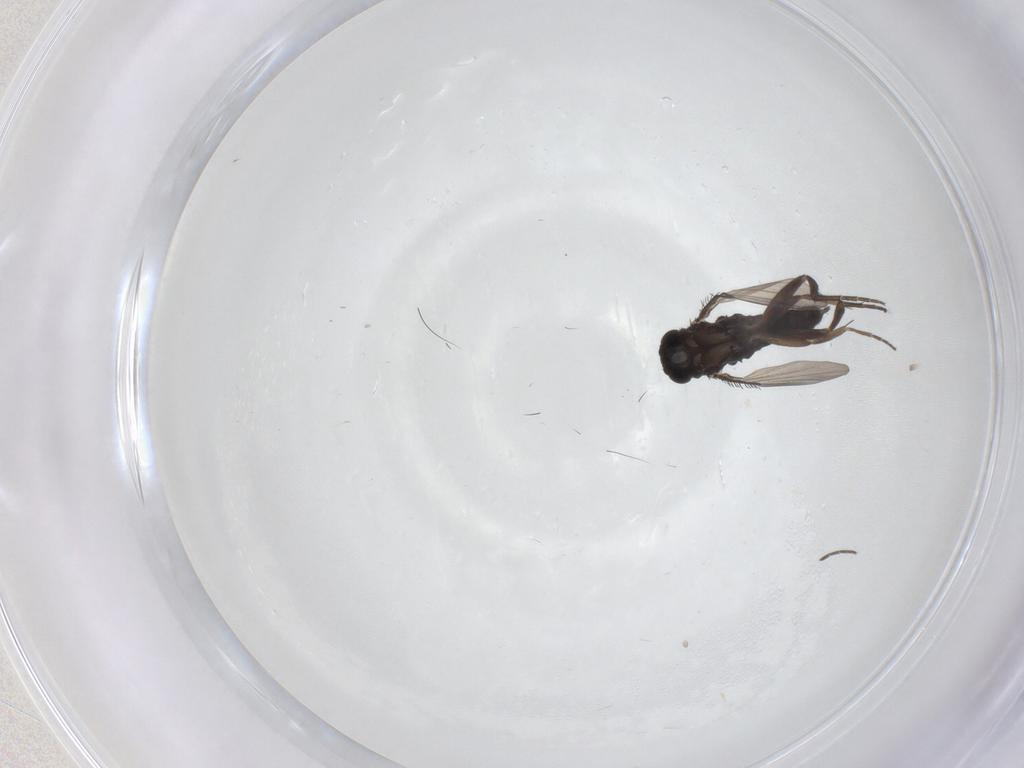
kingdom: Animalia
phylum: Arthropoda
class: Insecta
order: Diptera
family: Phoridae
